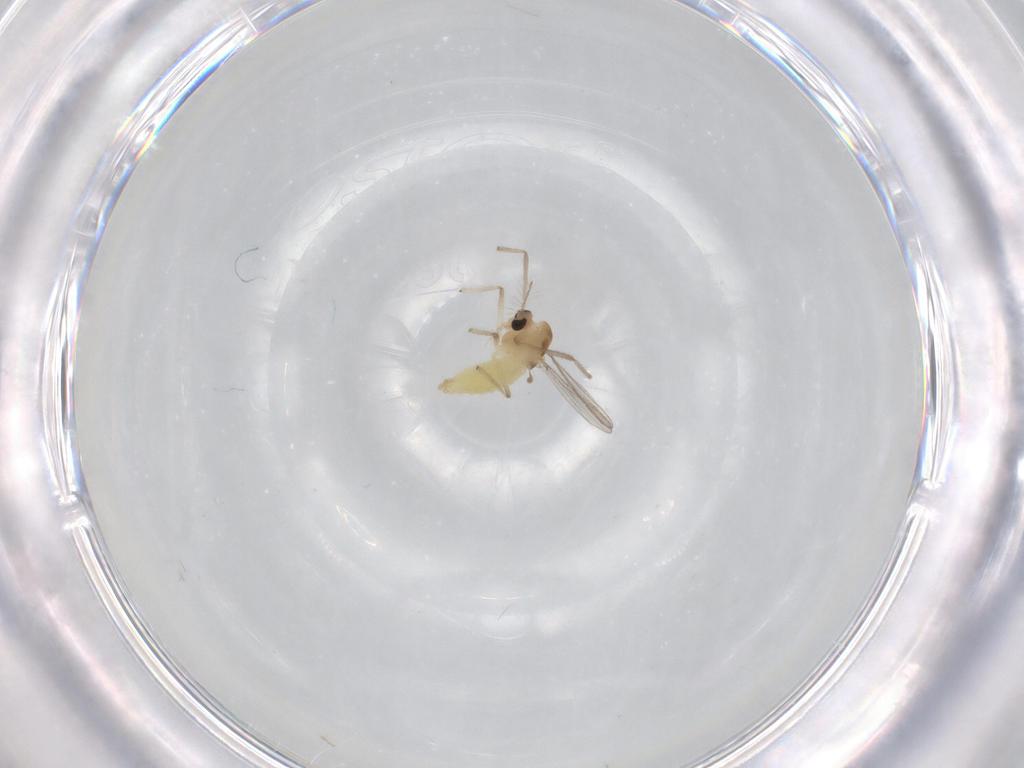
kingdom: Animalia
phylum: Arthropoda
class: Insecta
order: Diptera
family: Chironomidae
